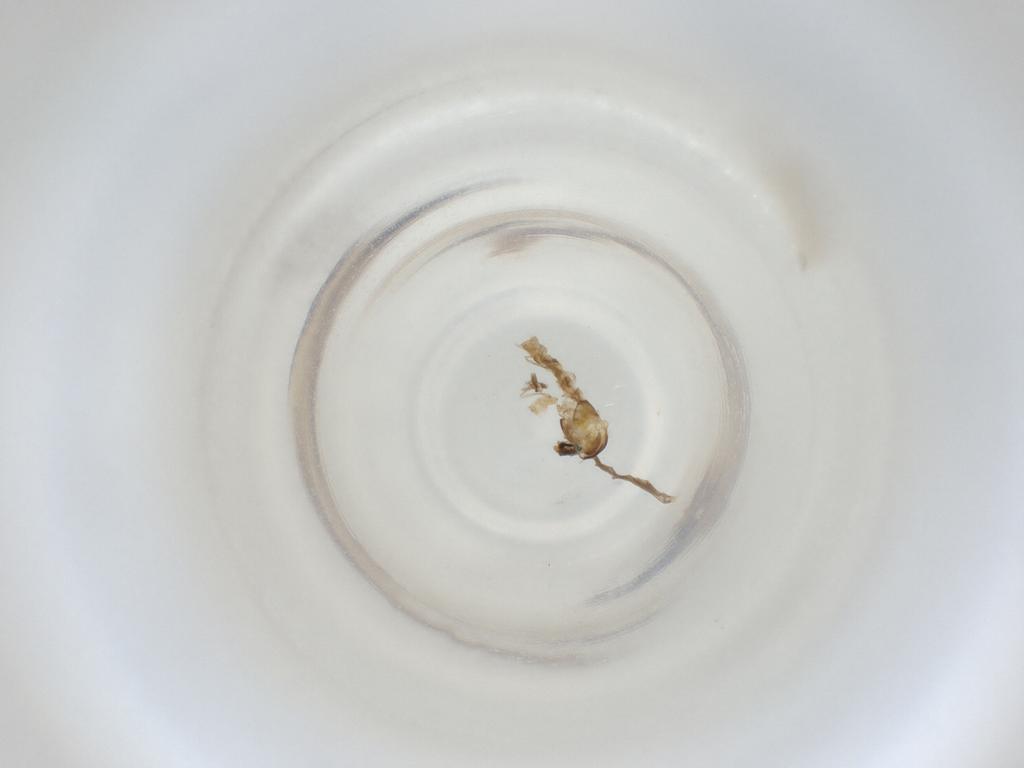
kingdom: Animalia
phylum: Arthropoda
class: Insecta
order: Diptera
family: Cecidomyiidae
